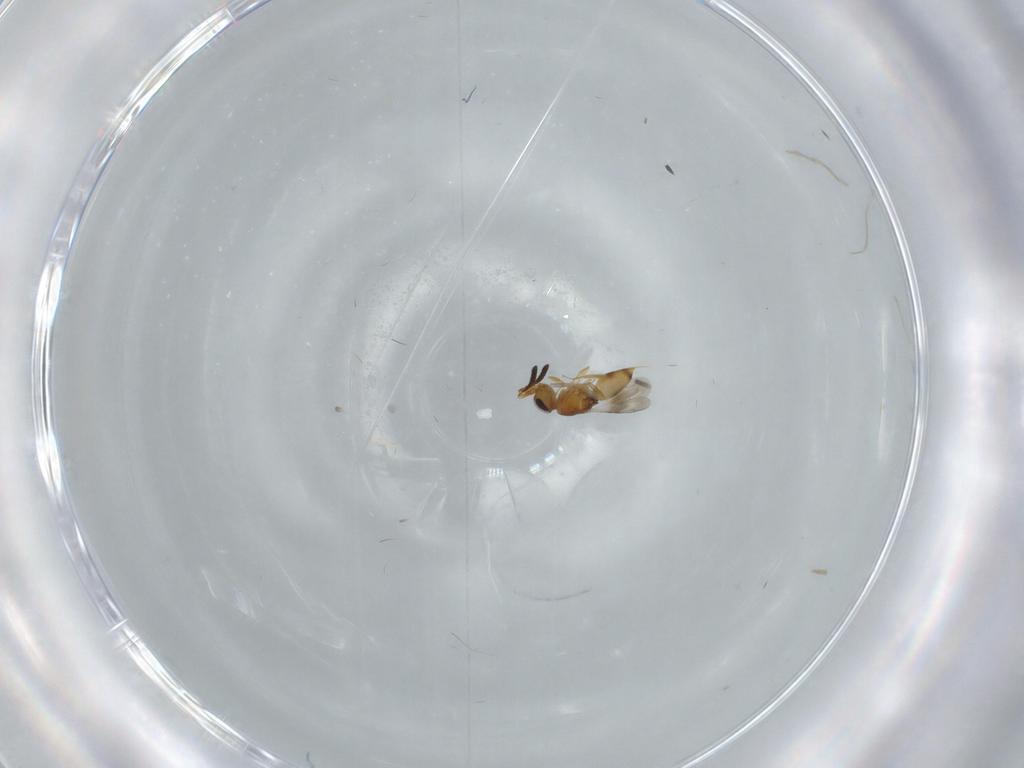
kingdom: Animalia
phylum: Arthropoda
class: Insecta
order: Hymenoptera
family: Ceraphronidae
